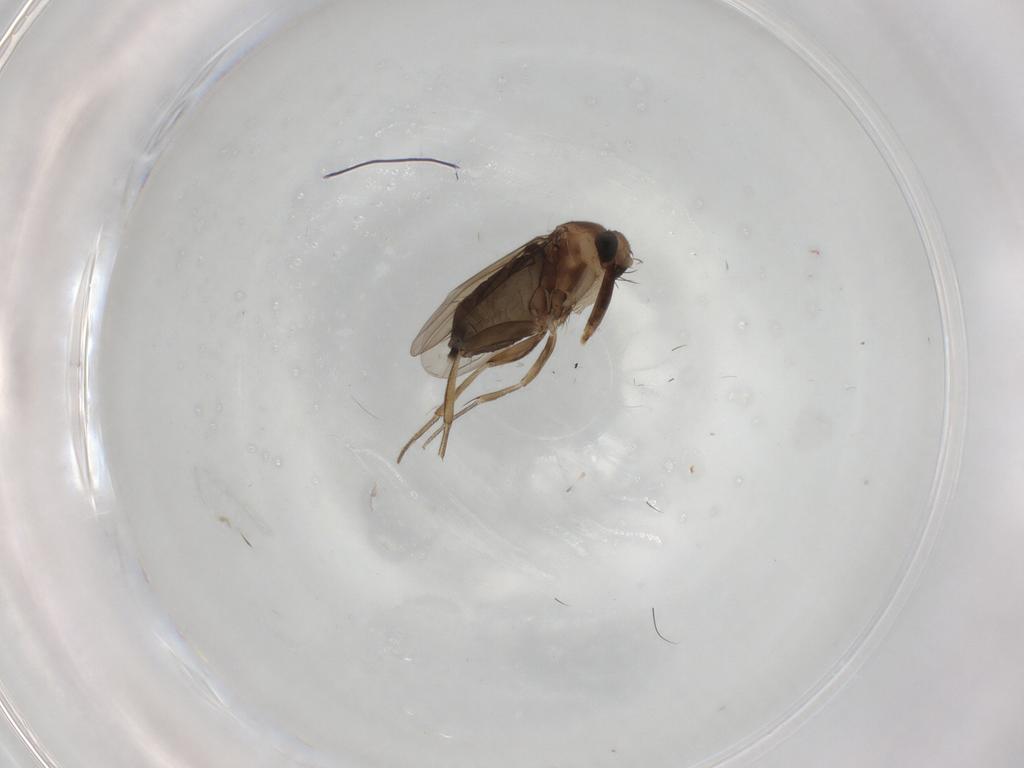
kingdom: Animalia
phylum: Arthropoda
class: Insecta
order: Diptera
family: Phoridae
